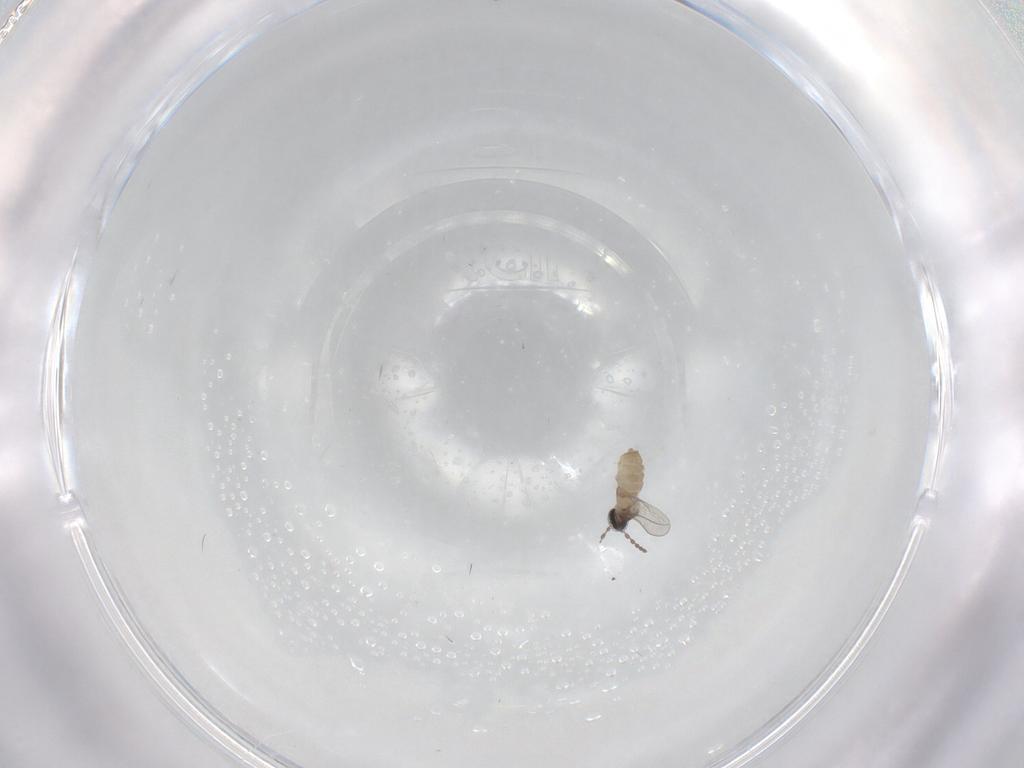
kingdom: Animalia
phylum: Arthropoda
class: Insecta
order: Diptera
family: Cecidomyiidae
